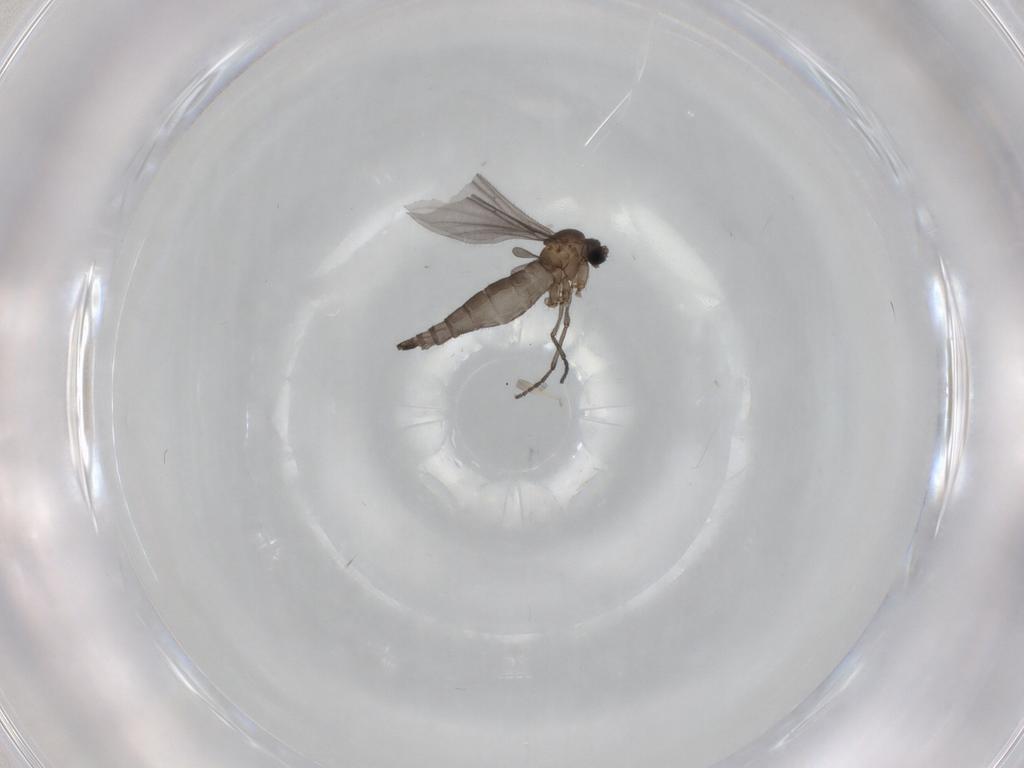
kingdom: Animalia
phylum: Arthropoda
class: Insecta
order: Diptera
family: Sciaridae
